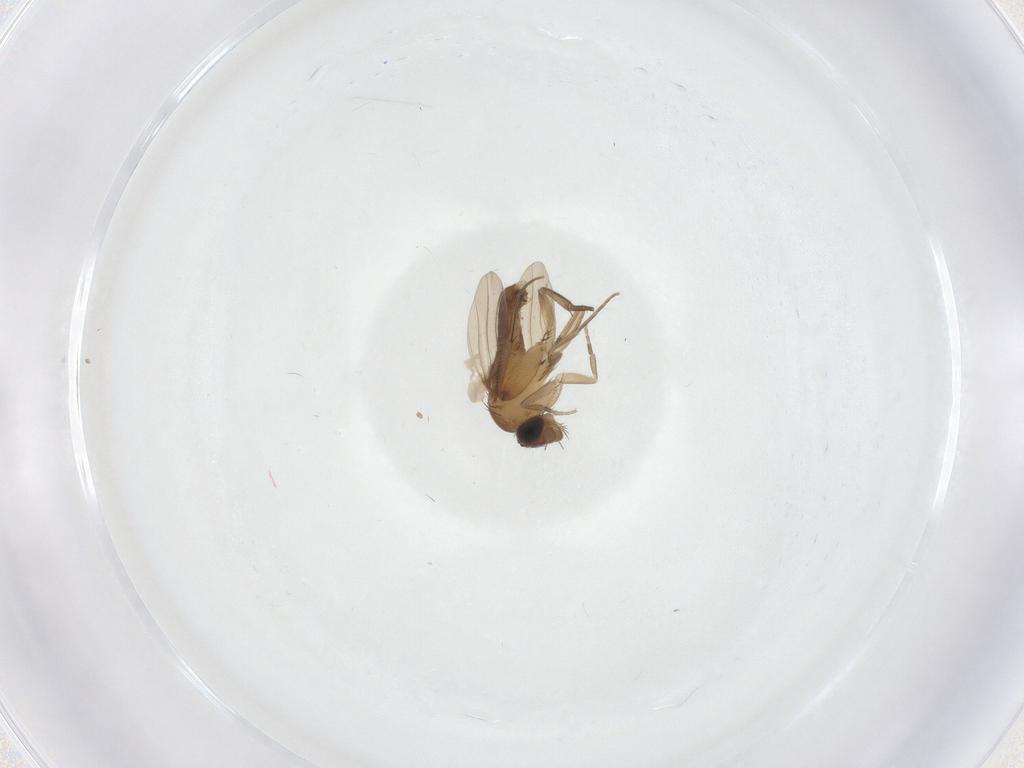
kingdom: Animalia
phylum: Arthropoda
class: Insecta
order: Diptera
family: Phoridae
